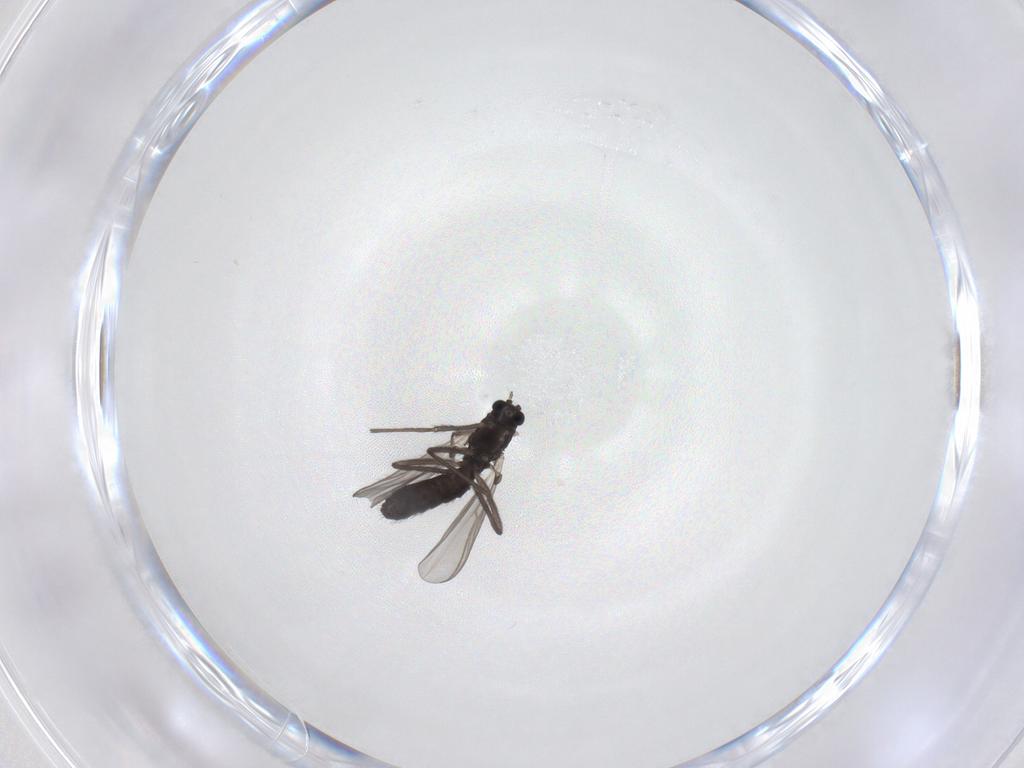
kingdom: Animalia
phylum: Arthropoda
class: Insecta
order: Diptera
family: Chironomidae
